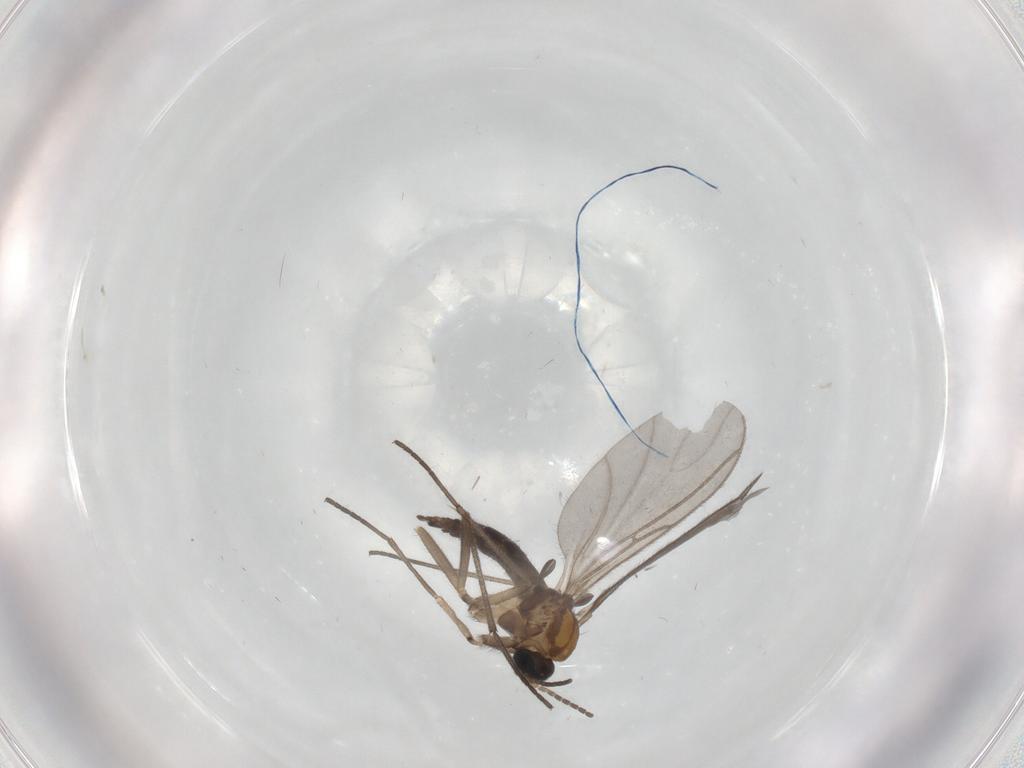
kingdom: Animalia
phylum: Arthropoda
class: Insecta
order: Diptera
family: Sciaridae
